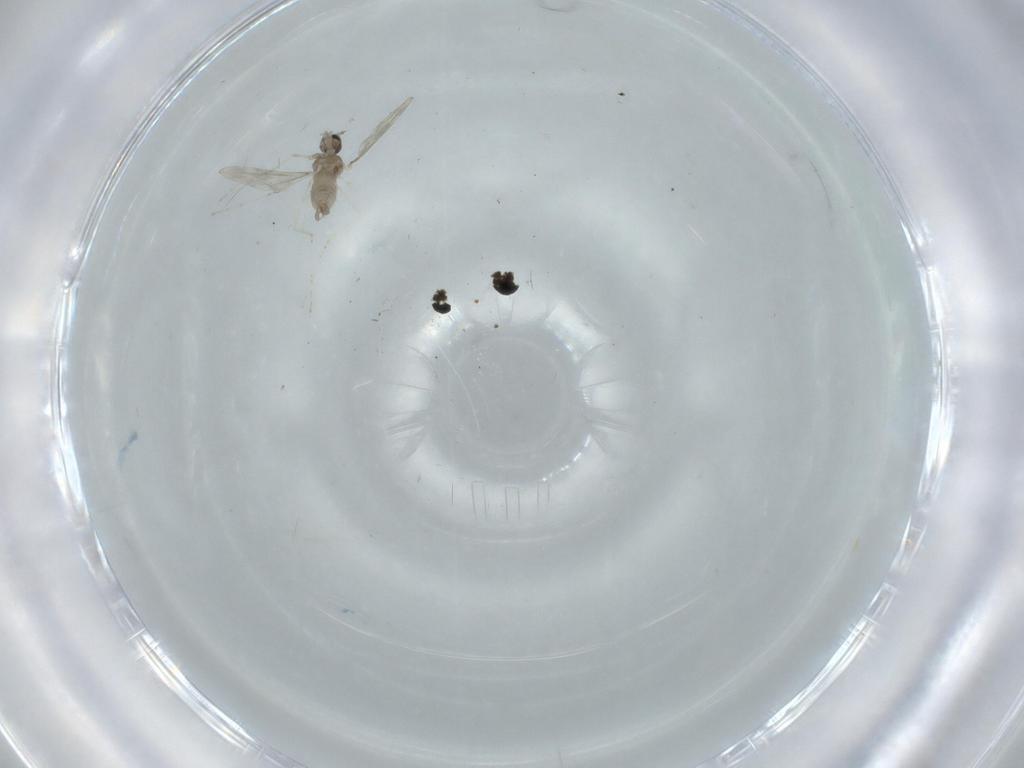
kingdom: Animalia
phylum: Arthropoda
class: Insecta
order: Diptera
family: Cecidomyiidae
